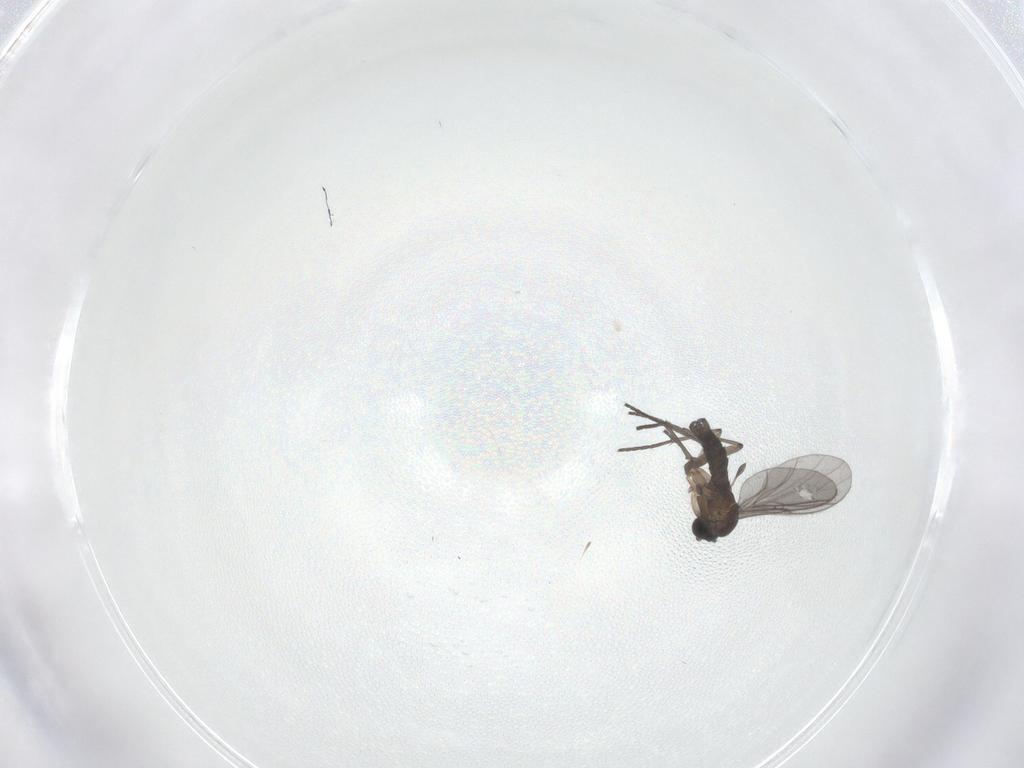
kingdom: Animalia
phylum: Arthropoda
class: Insecta
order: Diptera
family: Sciaridae
